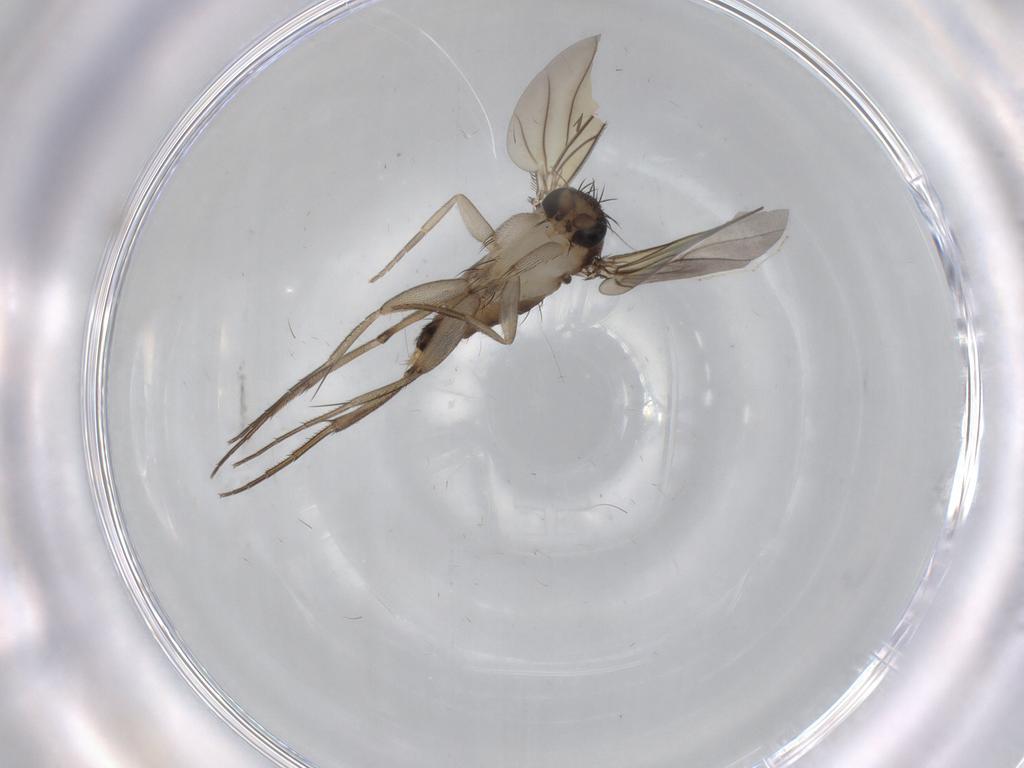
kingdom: Animalia
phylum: Arthropoda
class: Insecta
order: Diptera
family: Phoridae
